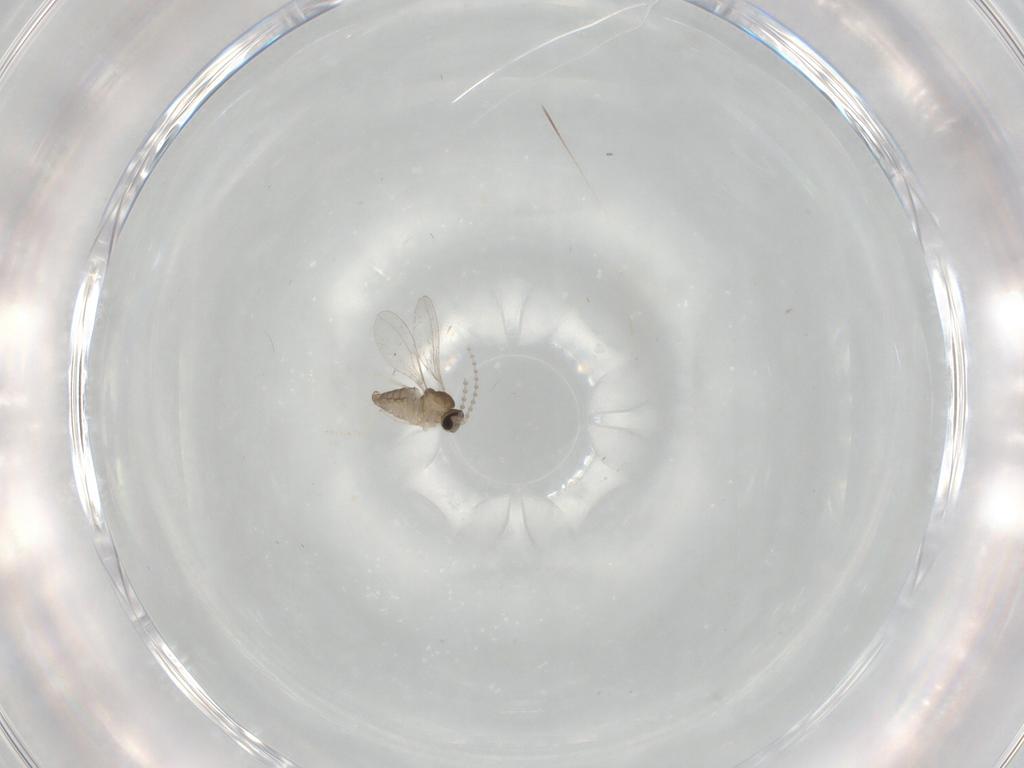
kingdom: Animalia
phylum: Arthropoda
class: Insecta
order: Diptera
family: Cecidomyiidae
